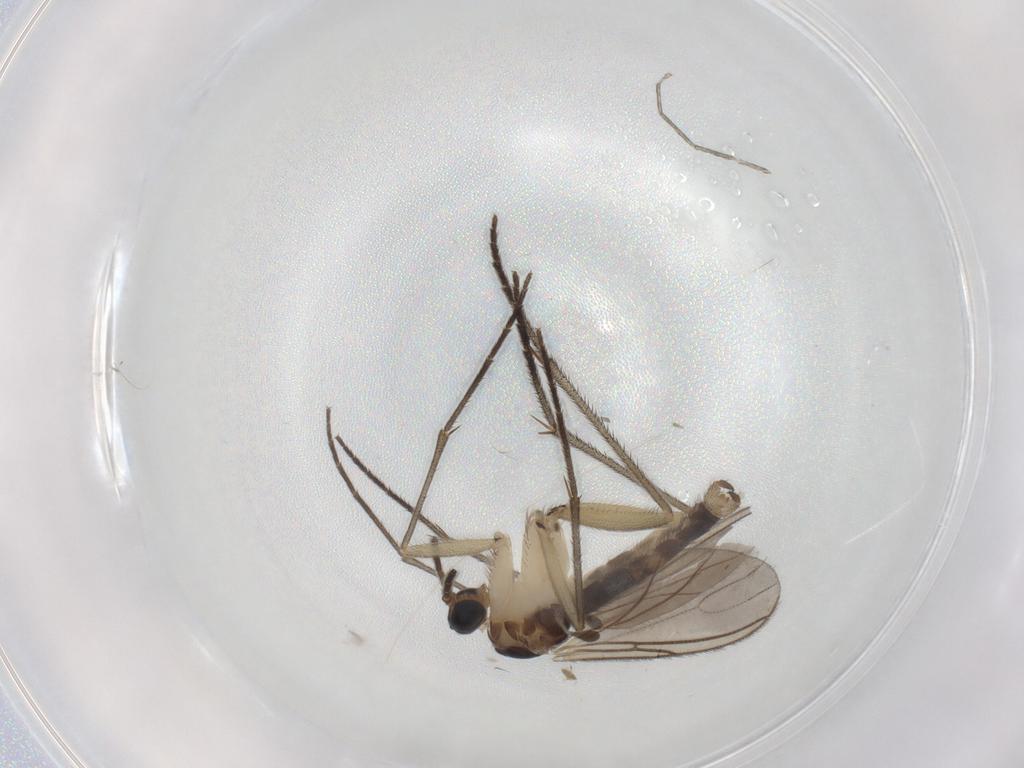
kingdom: Animalia
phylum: Arthropoda
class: Insecta
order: Diptera
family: Sciaridae
